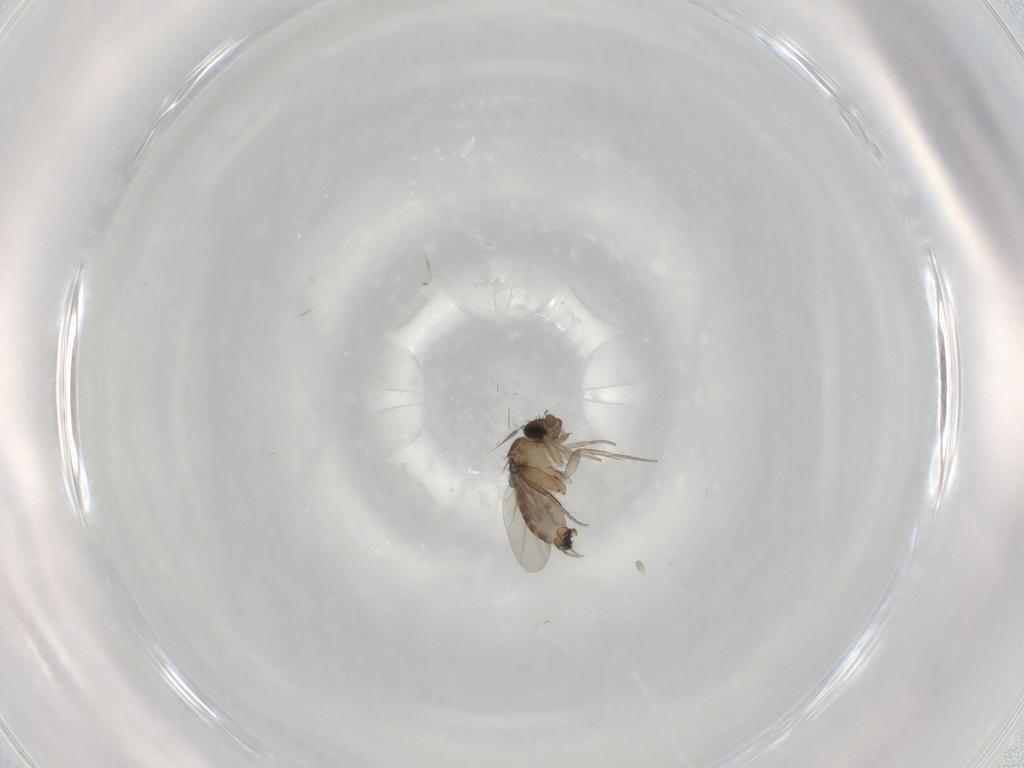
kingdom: Animalia
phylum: Arthropoda
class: Insecta
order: Diptera
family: Phoridae
